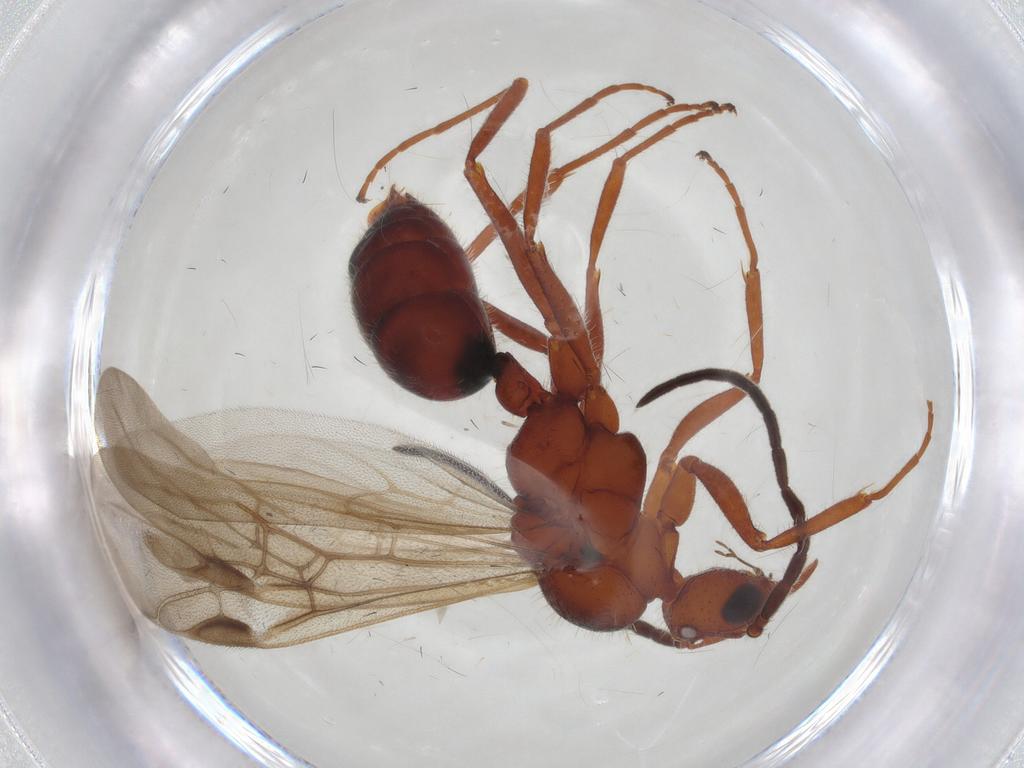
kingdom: Animalia
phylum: Arthropoda
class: Insecta
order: Hymenoptera
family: Formicidae
